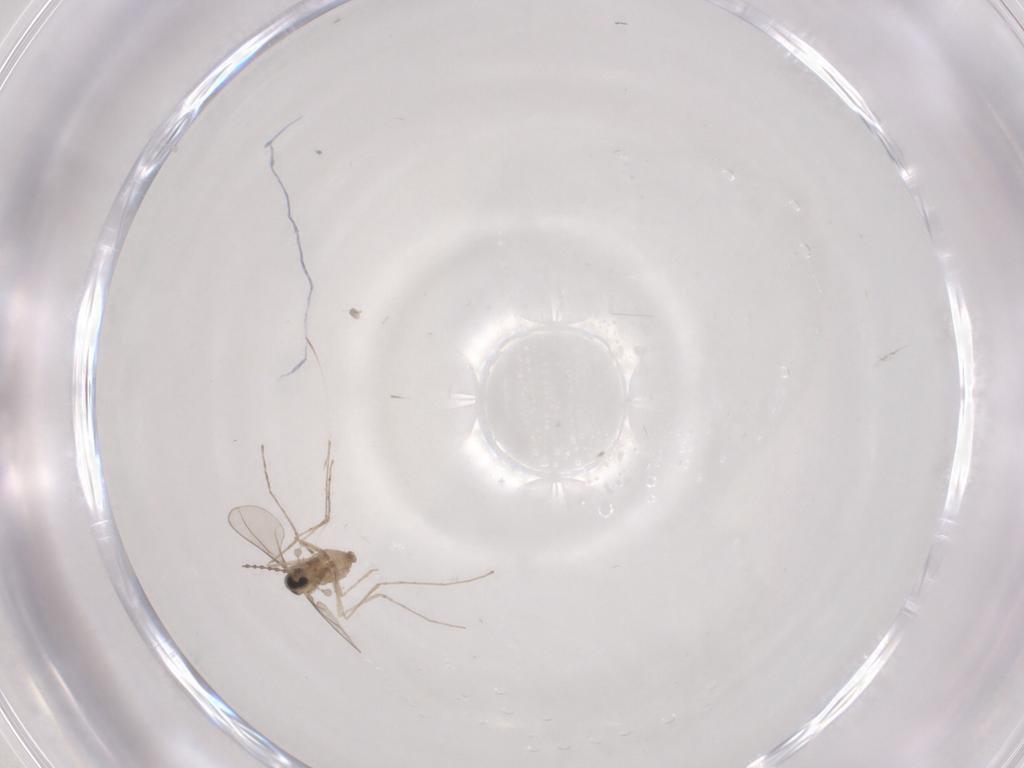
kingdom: Animalia
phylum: Arthropoda
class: Insecta
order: Diptera
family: Cecidomyiidae
